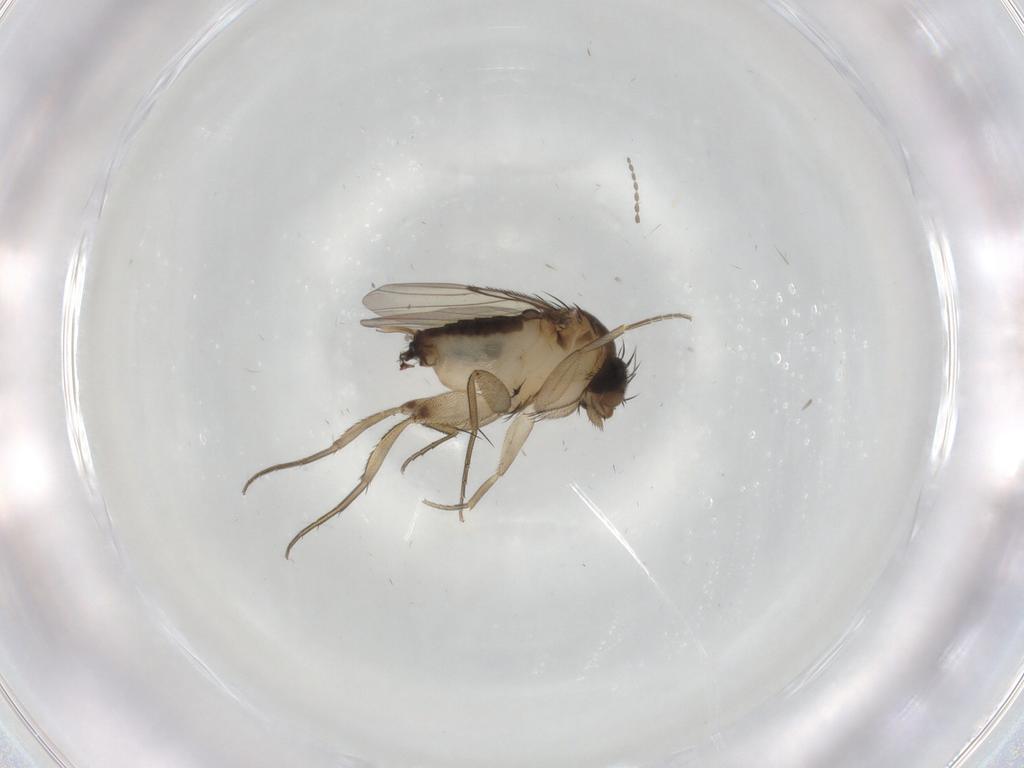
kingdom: Animalia
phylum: Arthropoda
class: Insecta
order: Diptera
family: Phoridae
